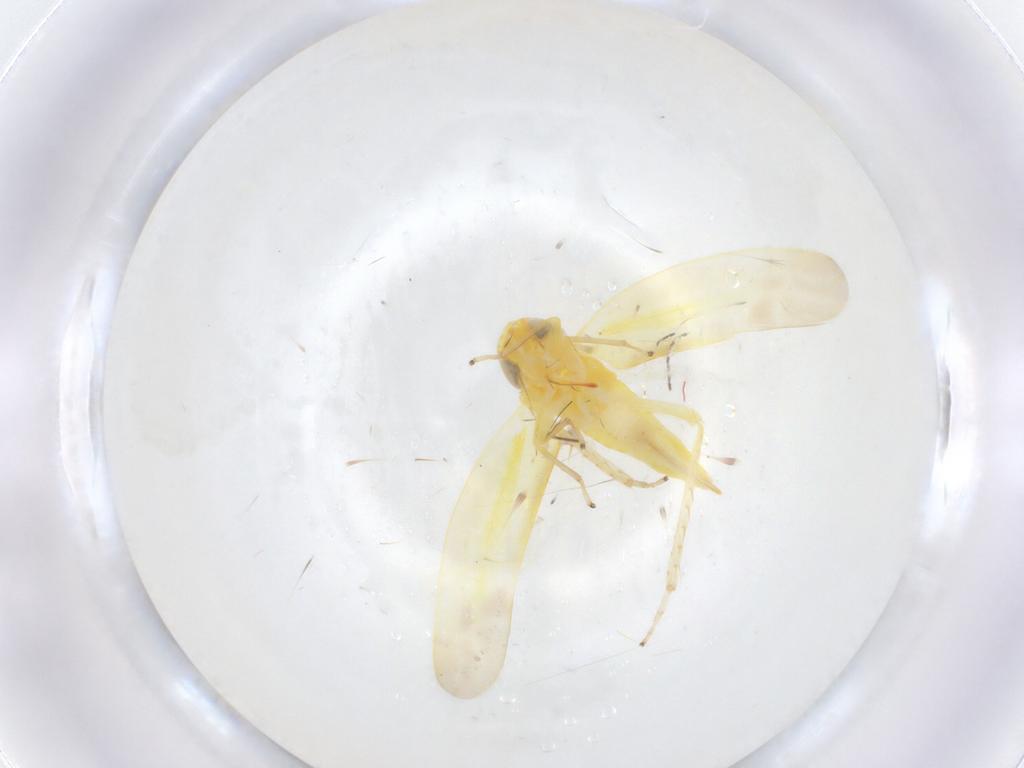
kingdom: Animalia
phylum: Arthropoda
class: Insecta
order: Hemiptera
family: Cicadellidae
